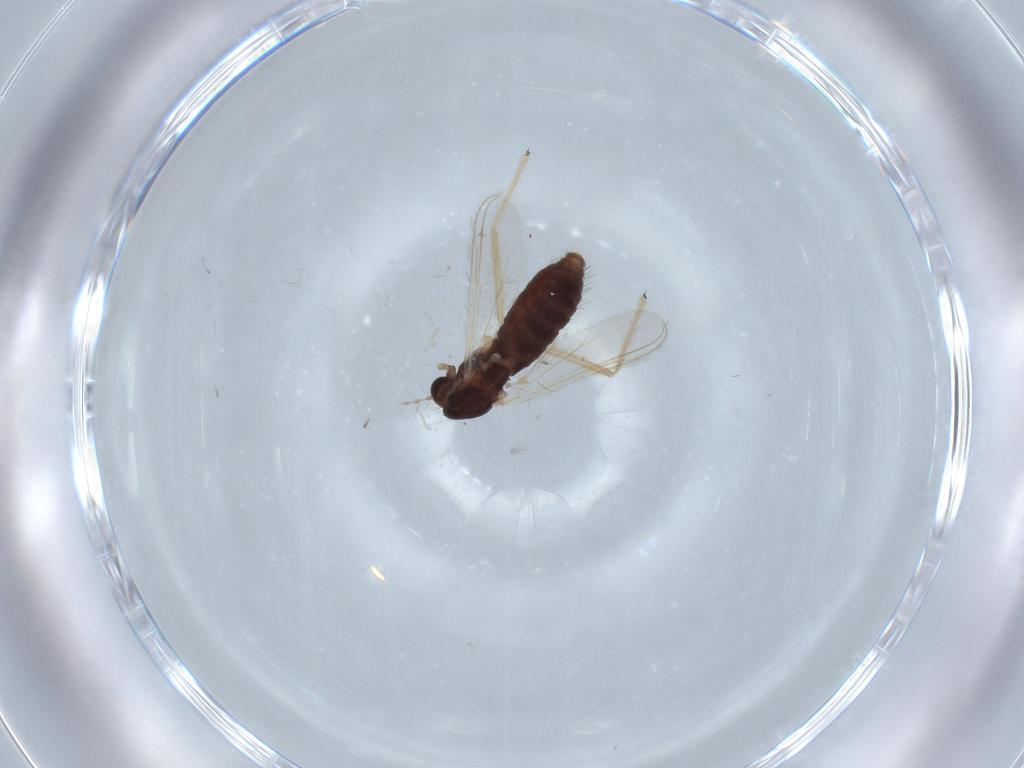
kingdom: Animalia
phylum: Arthropoda
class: Insecta
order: Diptera
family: Chironomidae
